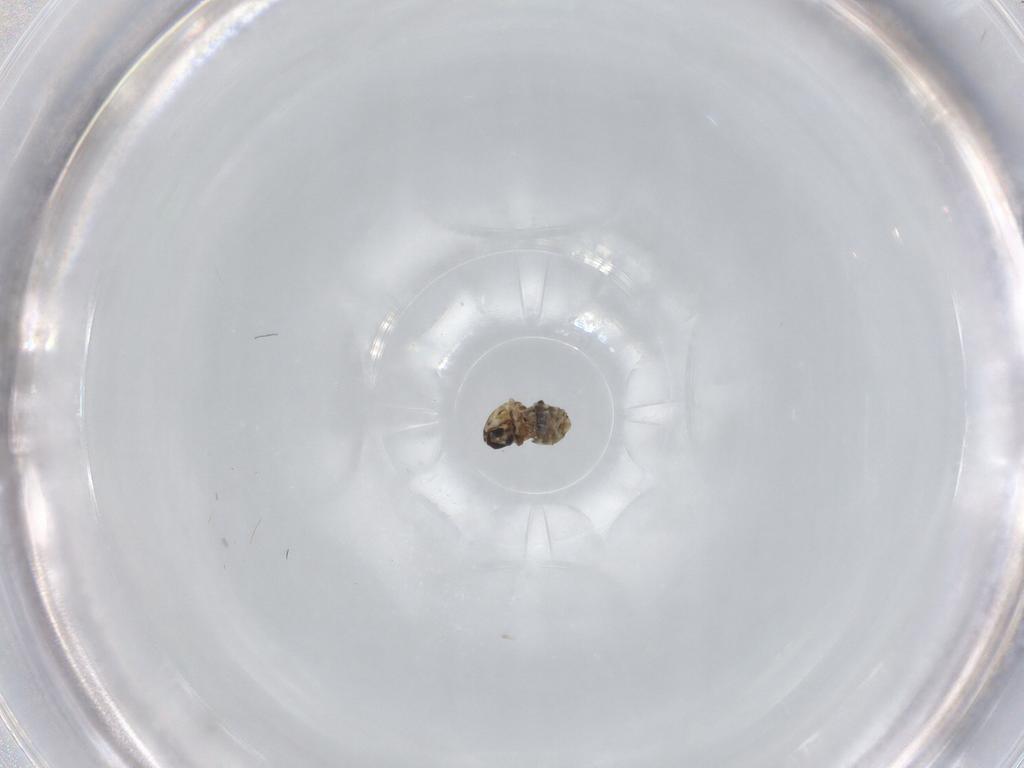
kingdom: Animalia
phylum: Arthropoda
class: Insecta
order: Diptera
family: Ceratopogonidae
